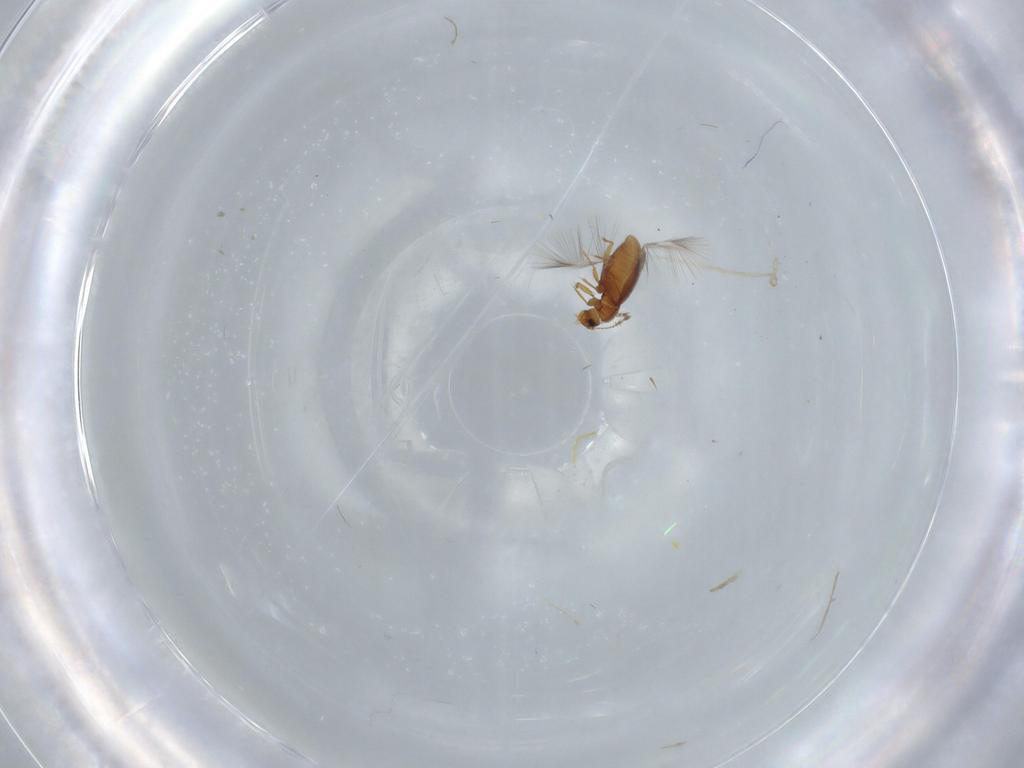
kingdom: Animalia
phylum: Arthropoda
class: Insecta
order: Coleoptera
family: Ptiliidae
